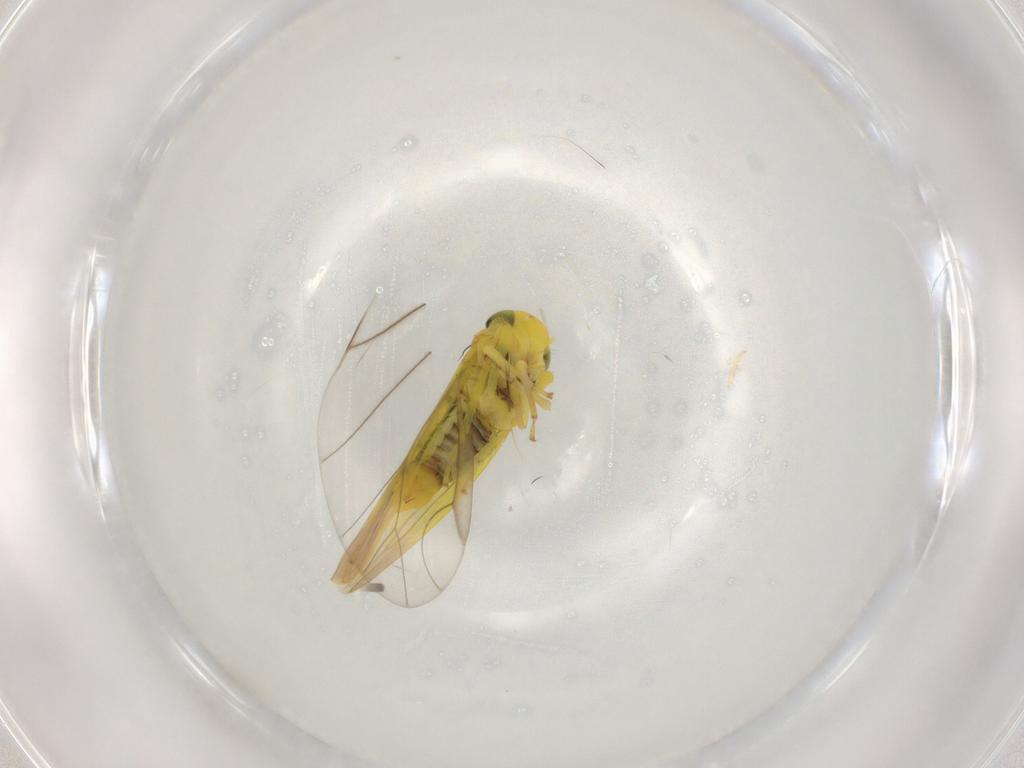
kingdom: Animalia
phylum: Arthropoda
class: Insecta
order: Hemiptera
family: Cicadellidae
